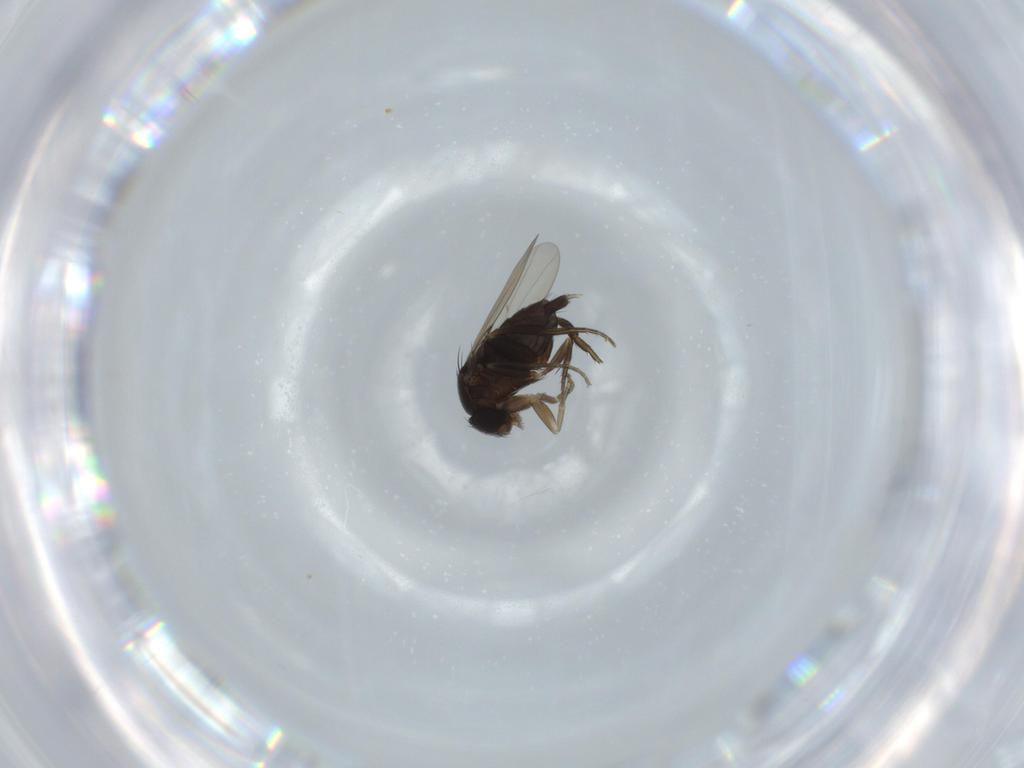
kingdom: Animalia
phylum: Arthropoda
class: Insecta
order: Diptera
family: Phoridae
